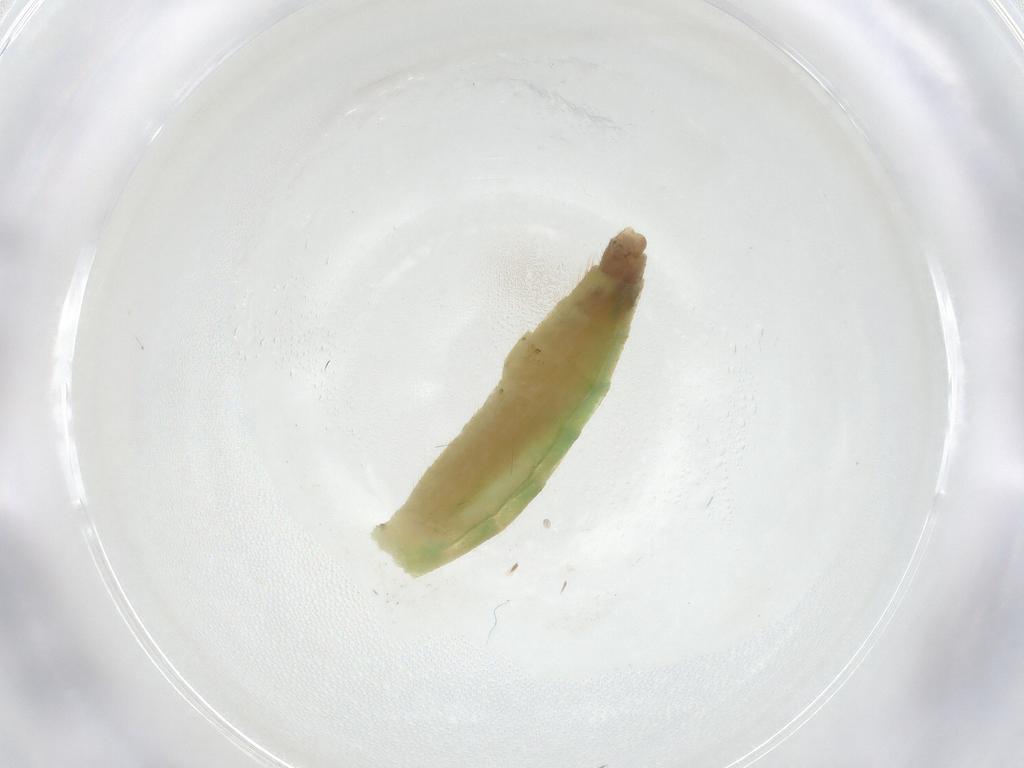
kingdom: Animalia
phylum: Arthropoda
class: Insecta
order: Diptera
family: Chironomidae
